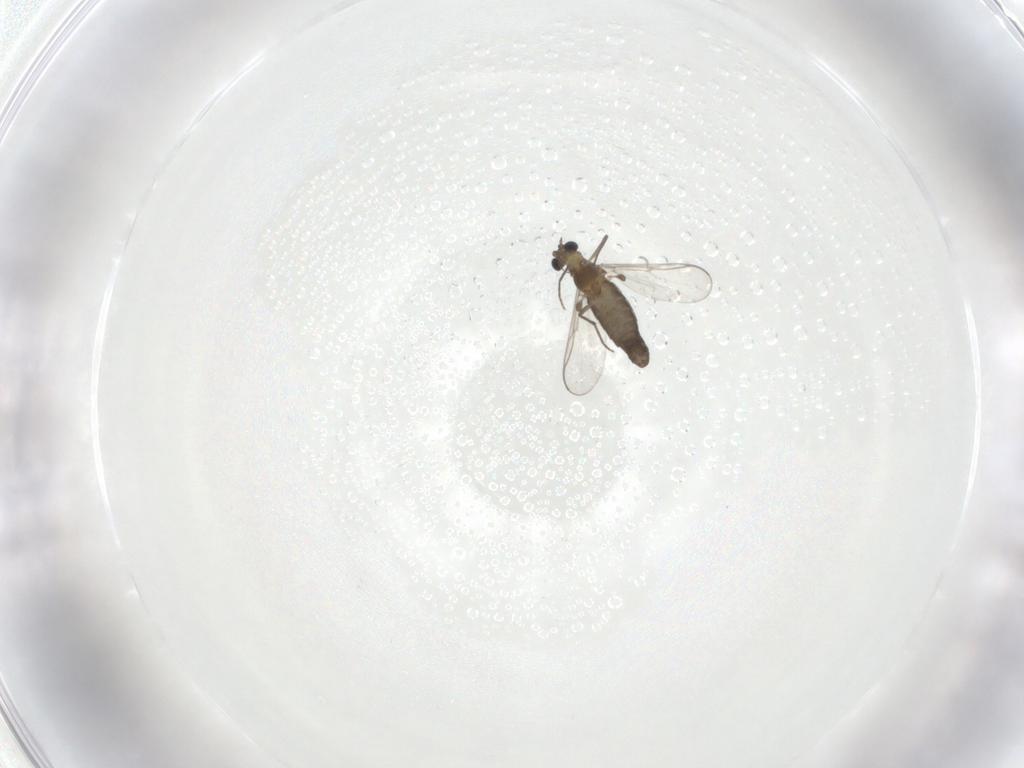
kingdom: Animalia
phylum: Arthropoda
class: Insecta
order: Diptera
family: Chironomidae
